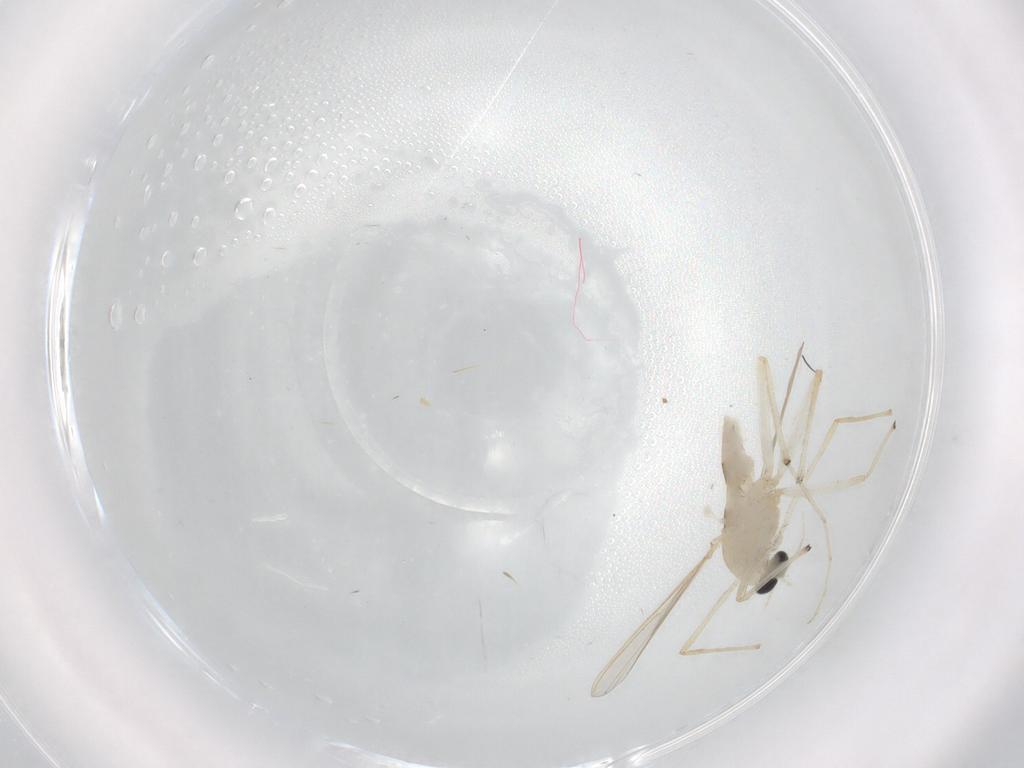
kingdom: Animalia
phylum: Arthropoda
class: Insecta
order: Diptera
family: Chironomidae
